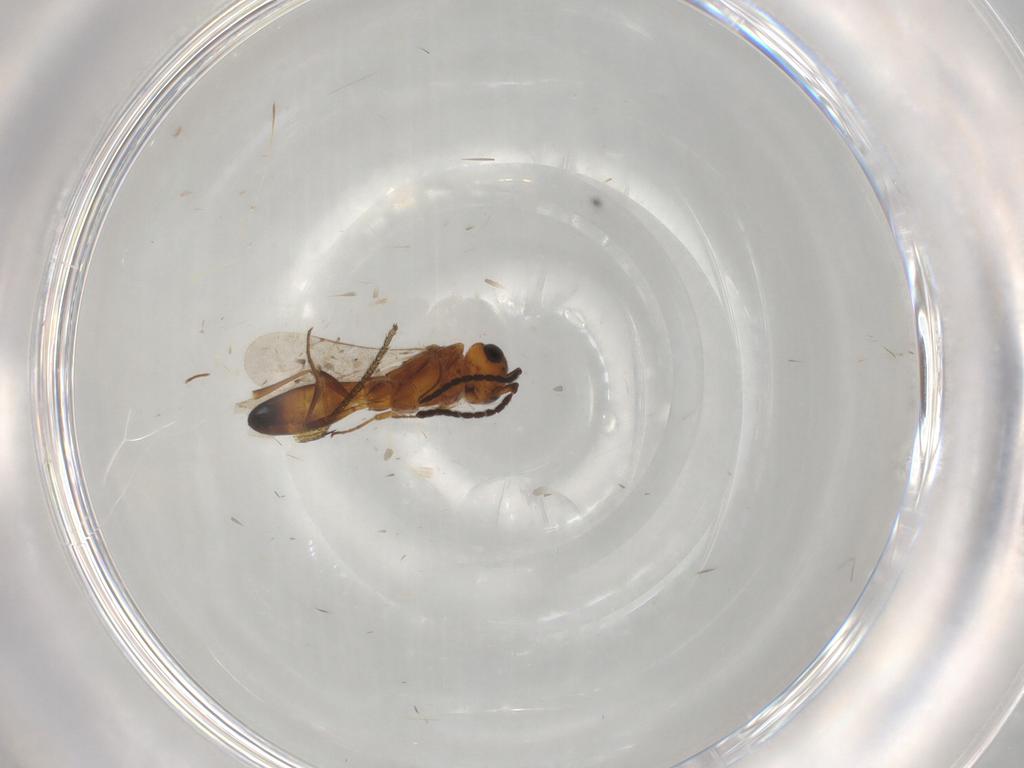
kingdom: Animalia
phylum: Arthropoda
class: Insecta
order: Hymenoptera
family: Scelionidae
